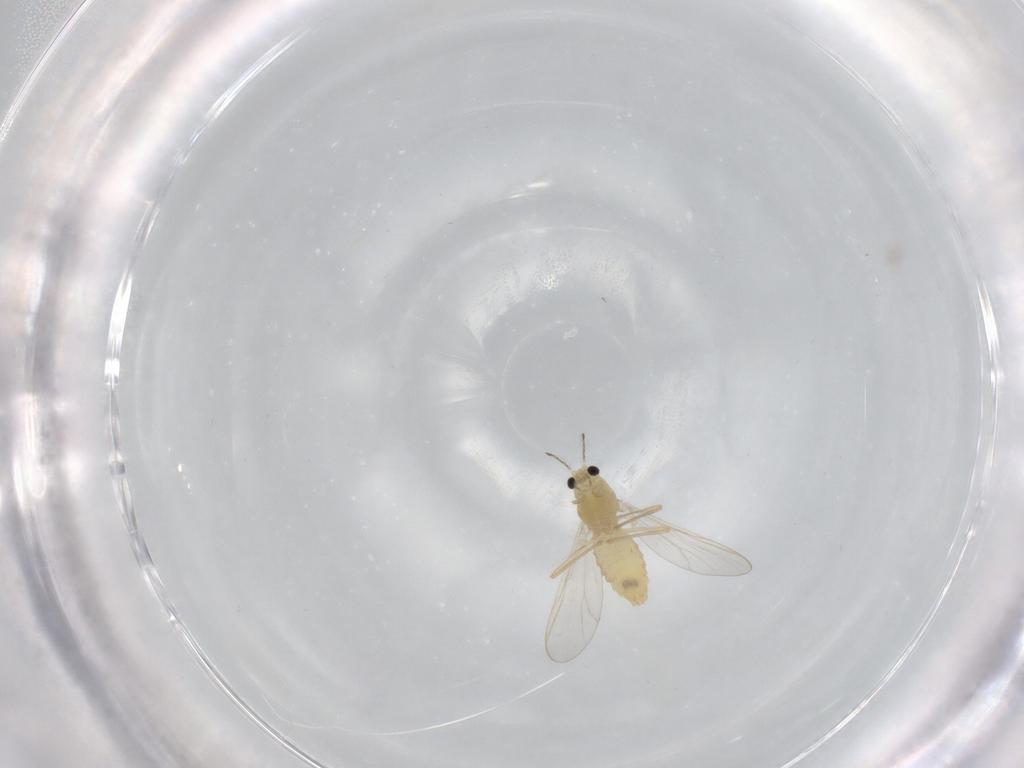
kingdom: Animalia
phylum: Arthropoda
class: Insecta
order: Diptera
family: Chironomidae
